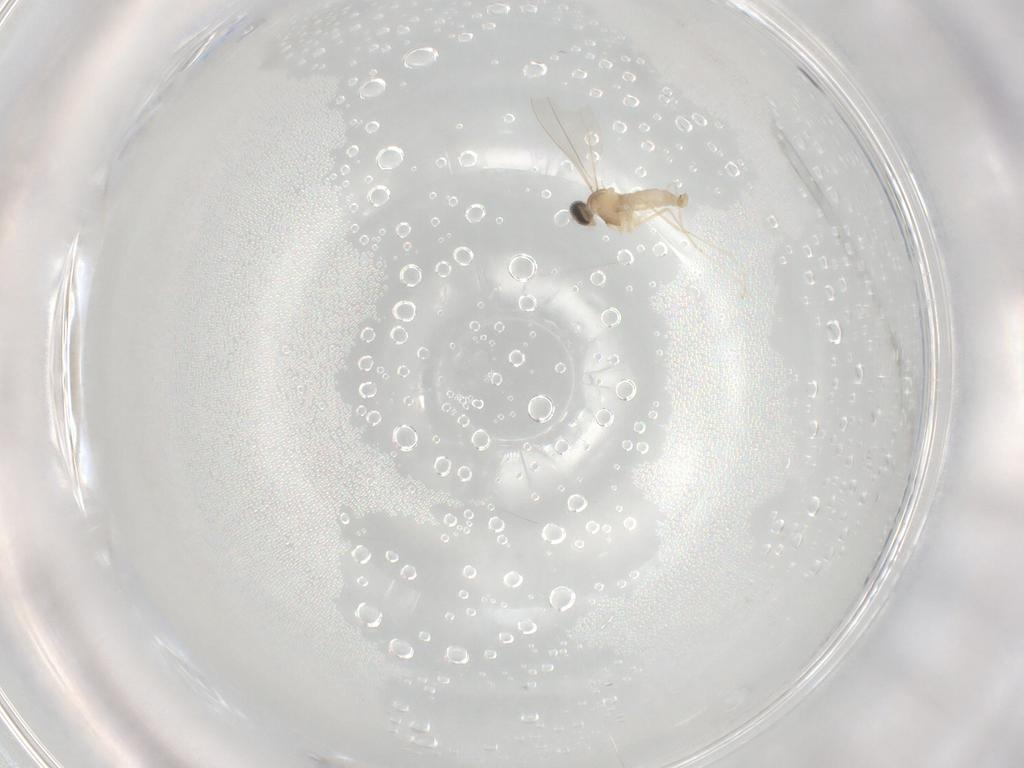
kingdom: Animalia
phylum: Arthropoda
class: Insecta
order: Diptera
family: Phoridae
